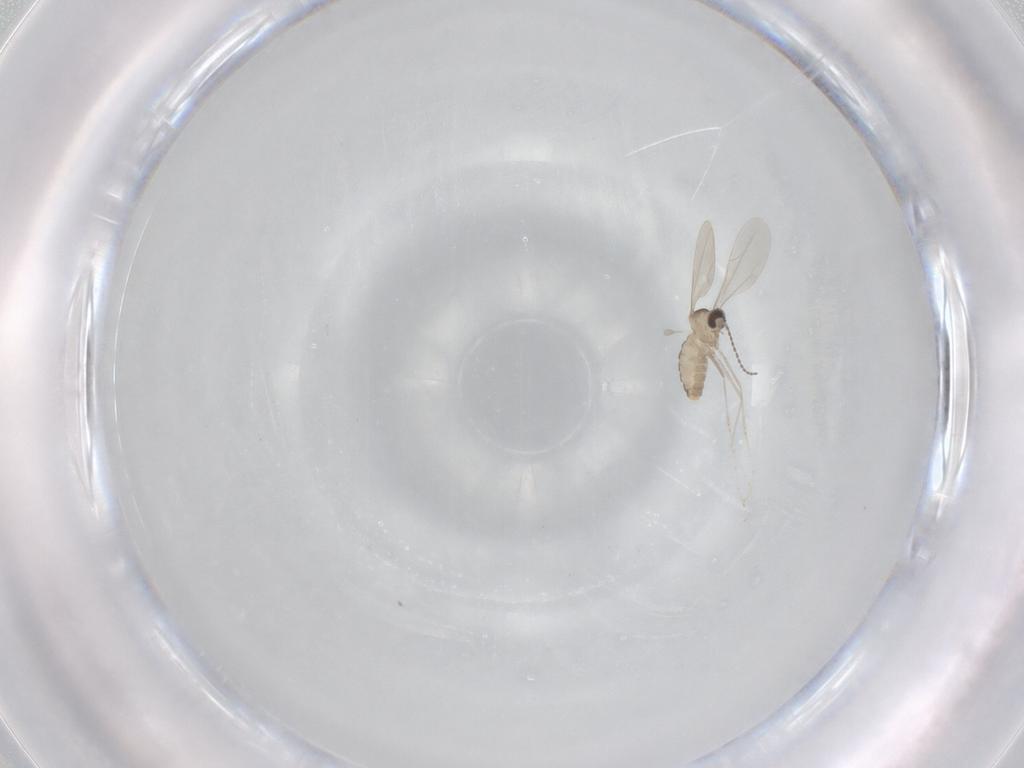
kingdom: Animalia
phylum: Arthropoda
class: Insecta
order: Diptera
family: Cecidomyiidae
